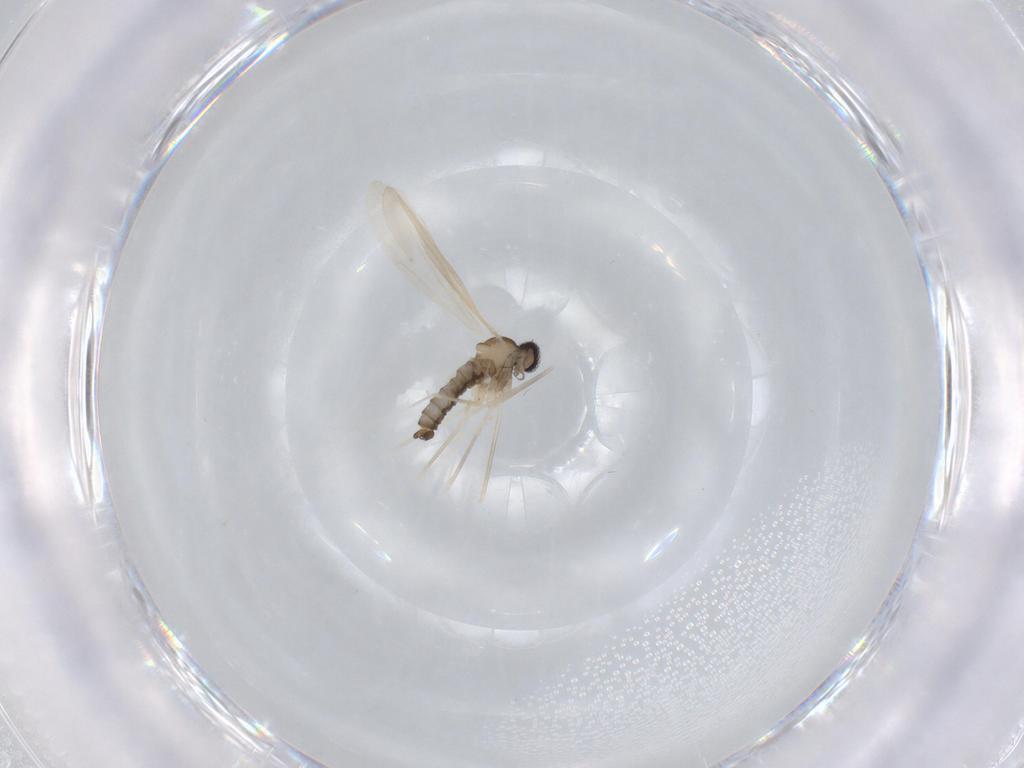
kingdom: Animalia
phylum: Arthropoda
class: Insecta
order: Diptera
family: Cecidomyiidae
